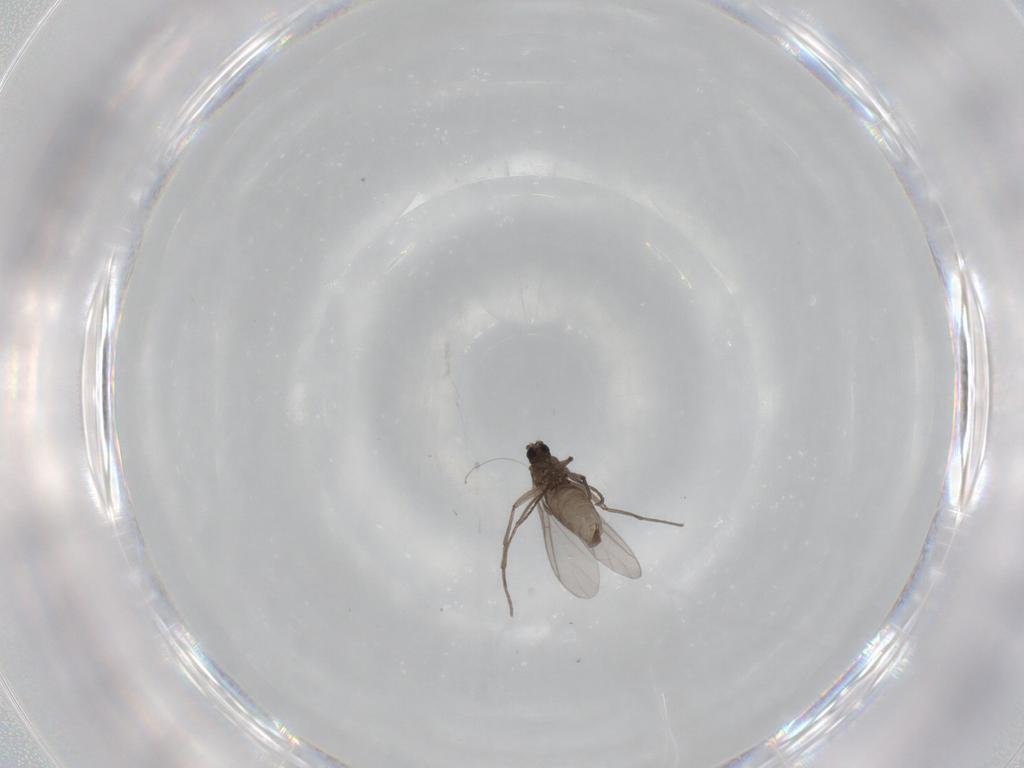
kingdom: Animalia
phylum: Arthropoda
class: Insecta
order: Diptera
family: Sciaridae
